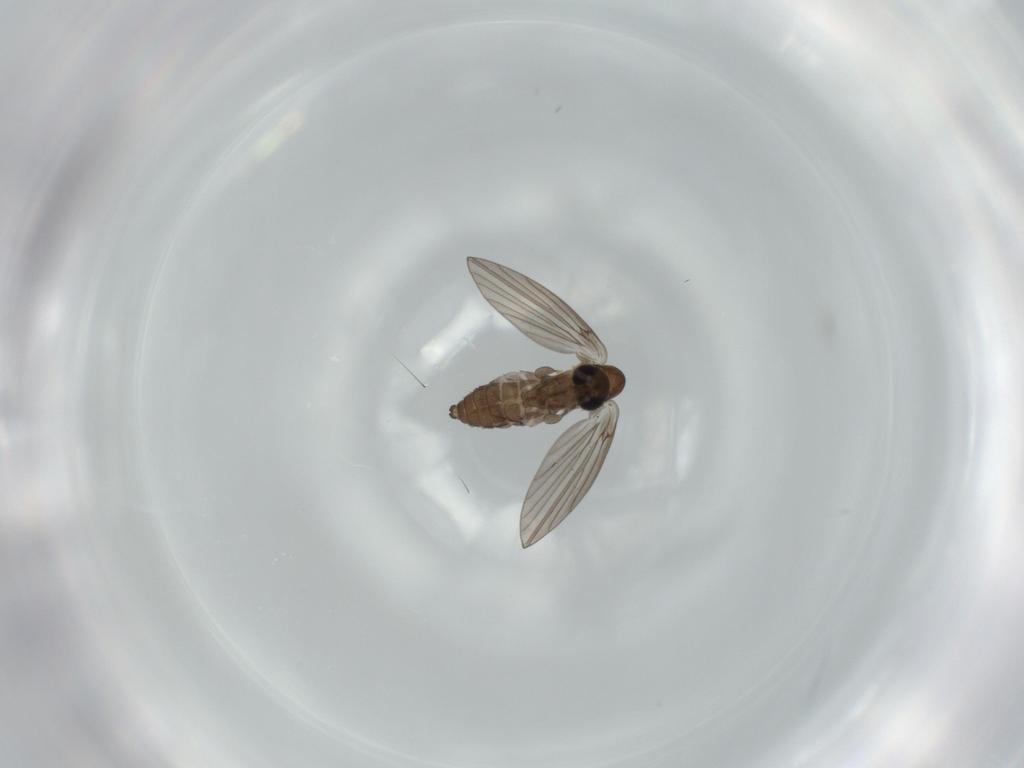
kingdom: Animalia
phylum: Arthropoda
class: Insecta
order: Diptera
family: Psychodidae
